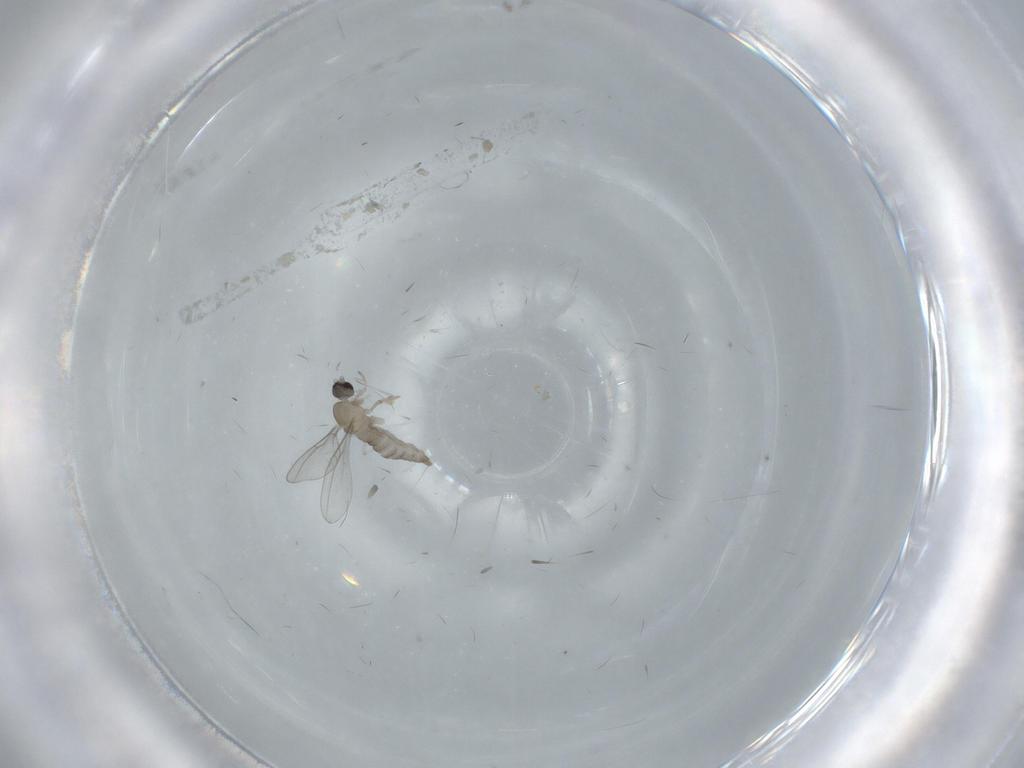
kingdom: Animalia
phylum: Arthropoda
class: Insecta
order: Diptera
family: Cecidomyiidae
